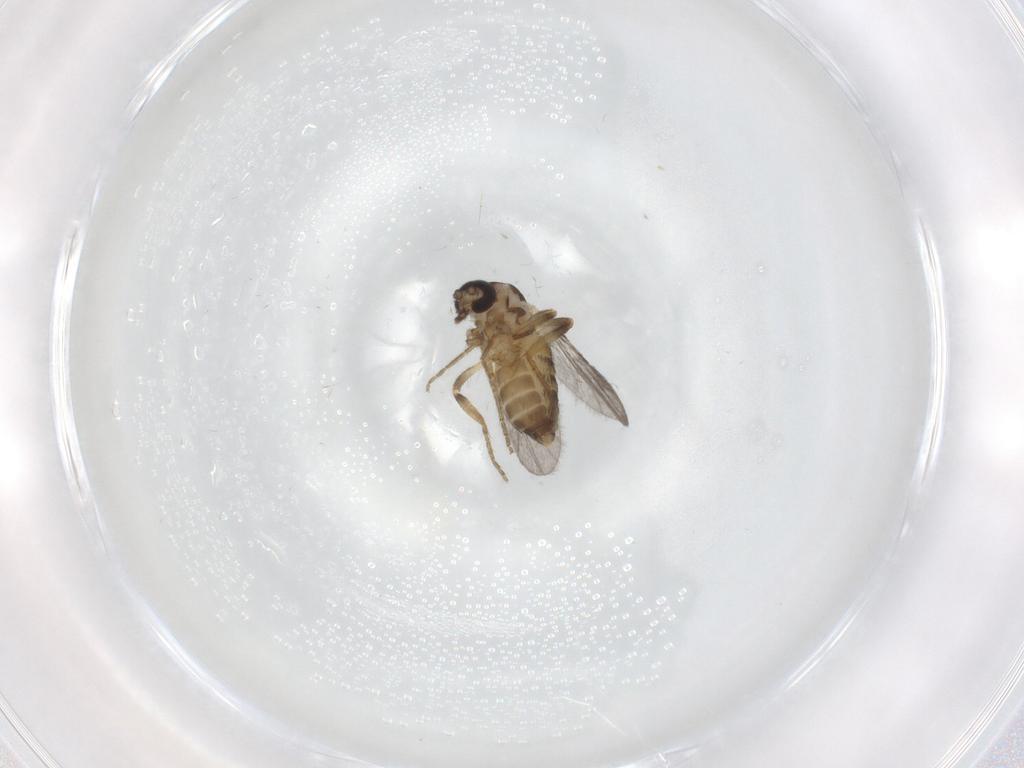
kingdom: Animalia
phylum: Arthropoda
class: Insecta
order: Diptera
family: Ceratopogonidae
